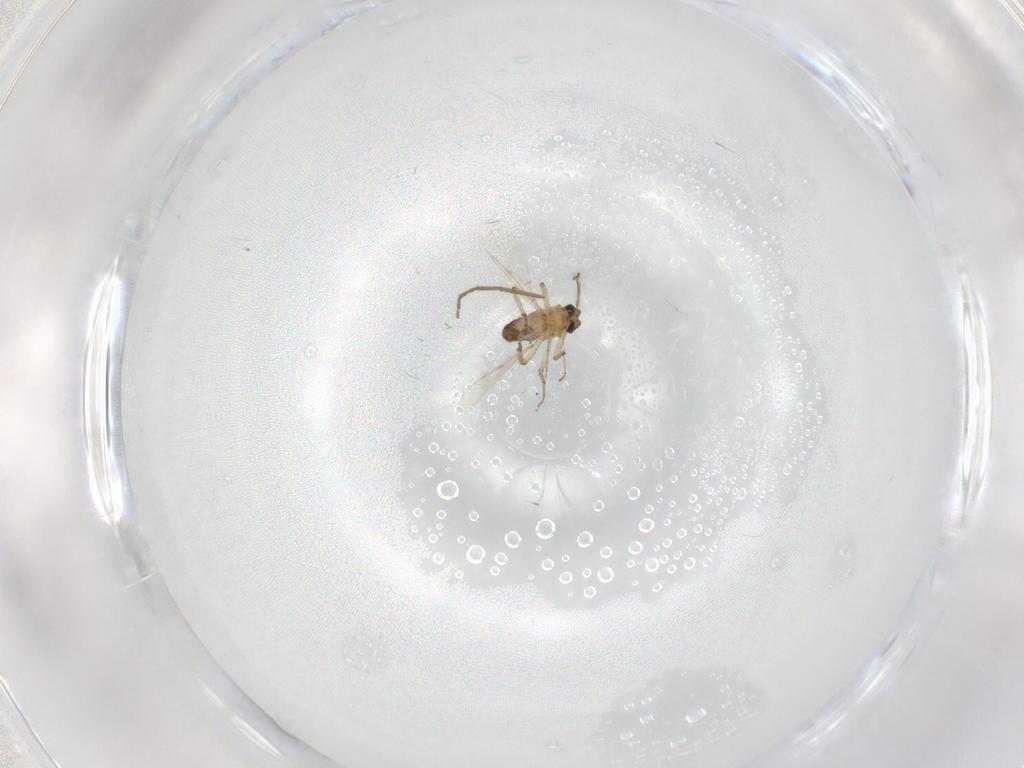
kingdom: Animalia
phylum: Arthropoda
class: Insecta
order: Diptera
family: Ceratopogonidae
